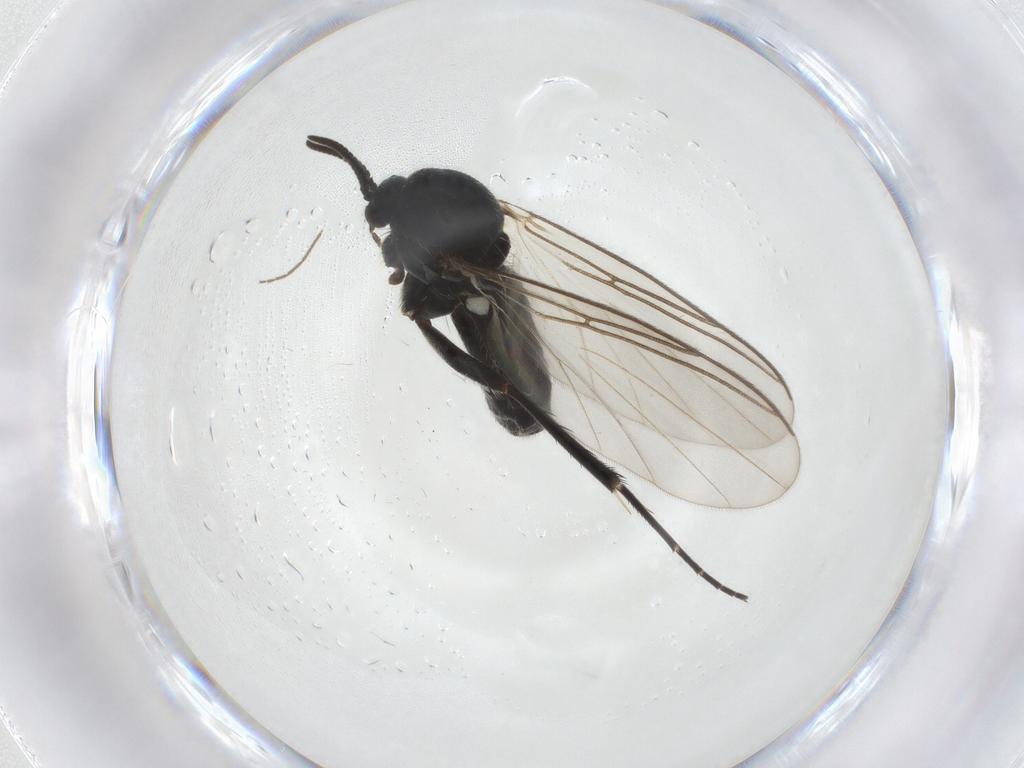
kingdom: Animalia
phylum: Arthropoda
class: Insecta
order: Diptera
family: Mycetophilidae
